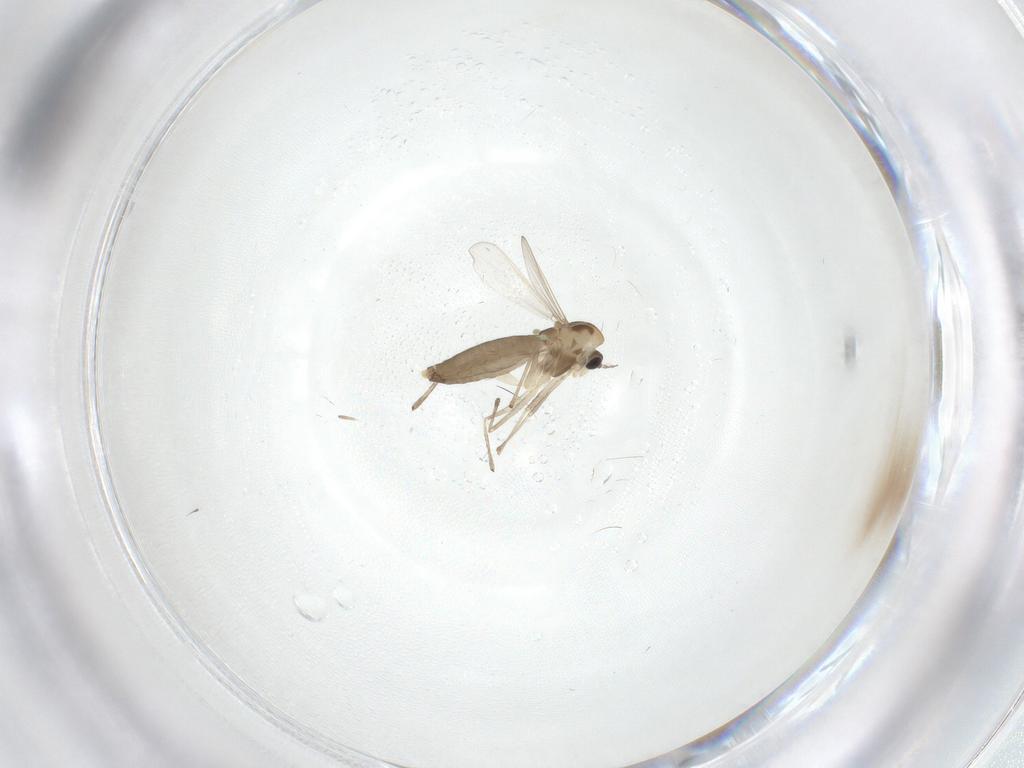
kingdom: Animalia
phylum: Arthropoda
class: Insecta
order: Diptera
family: Chironomidae
